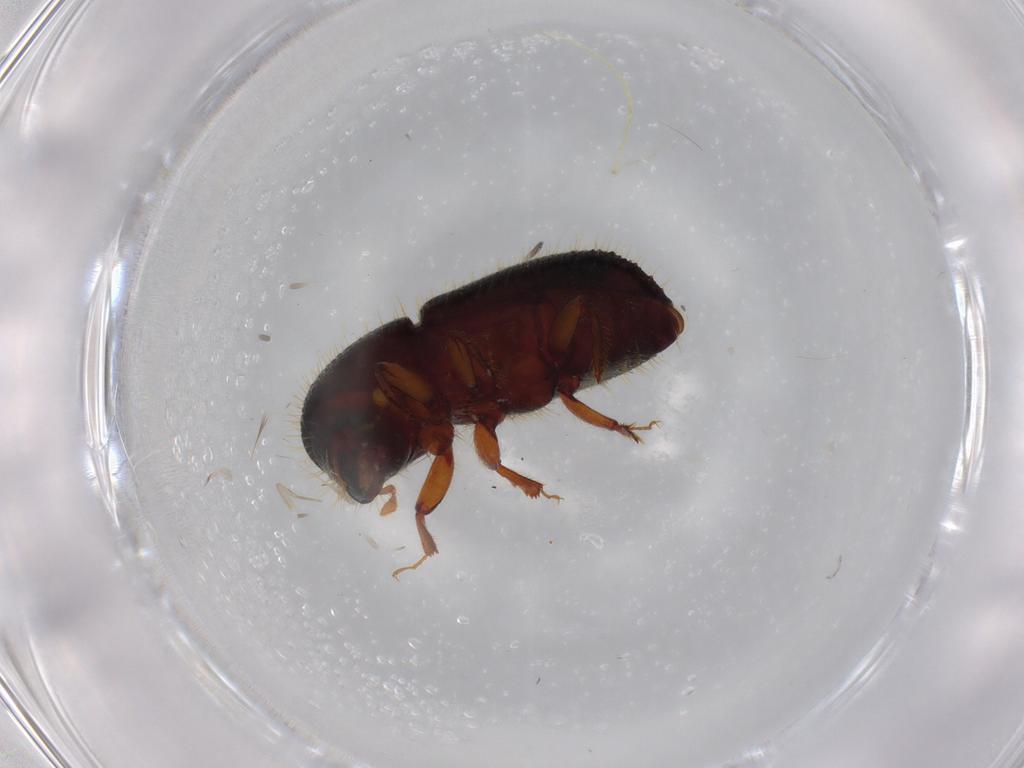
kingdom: Animalia
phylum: Arthropoda
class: Insecta
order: Coleoptera
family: Curculionidae
